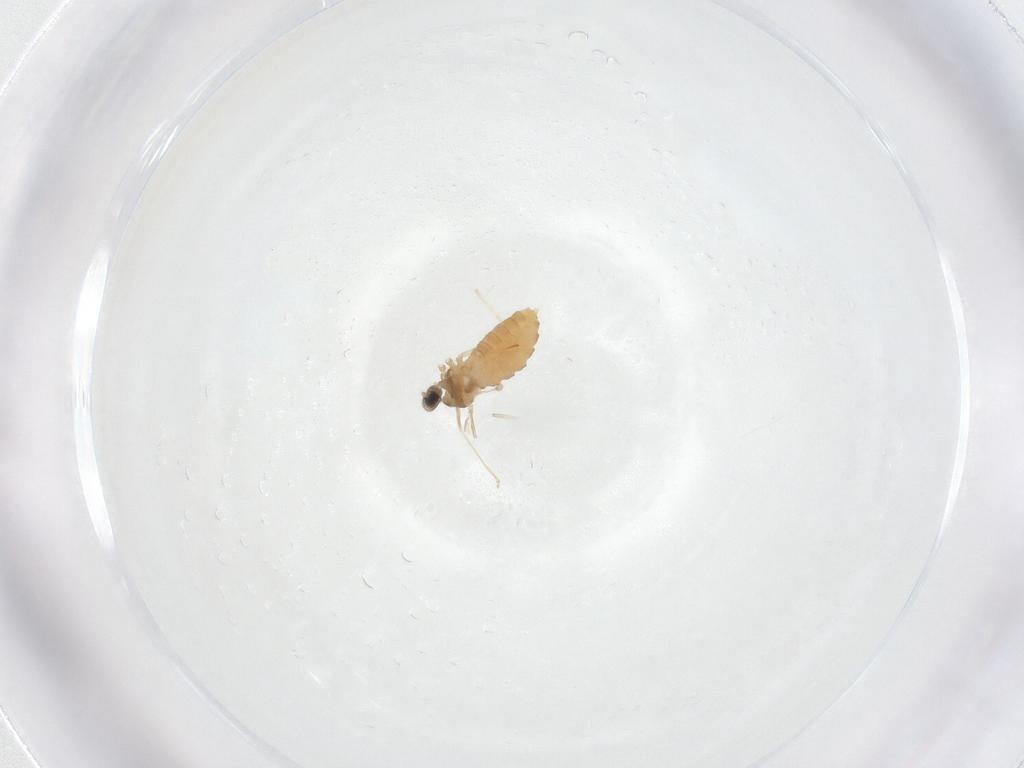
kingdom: Animalia
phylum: Arthropoda
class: Insecta
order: Diptera
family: Cecidomyiidae
